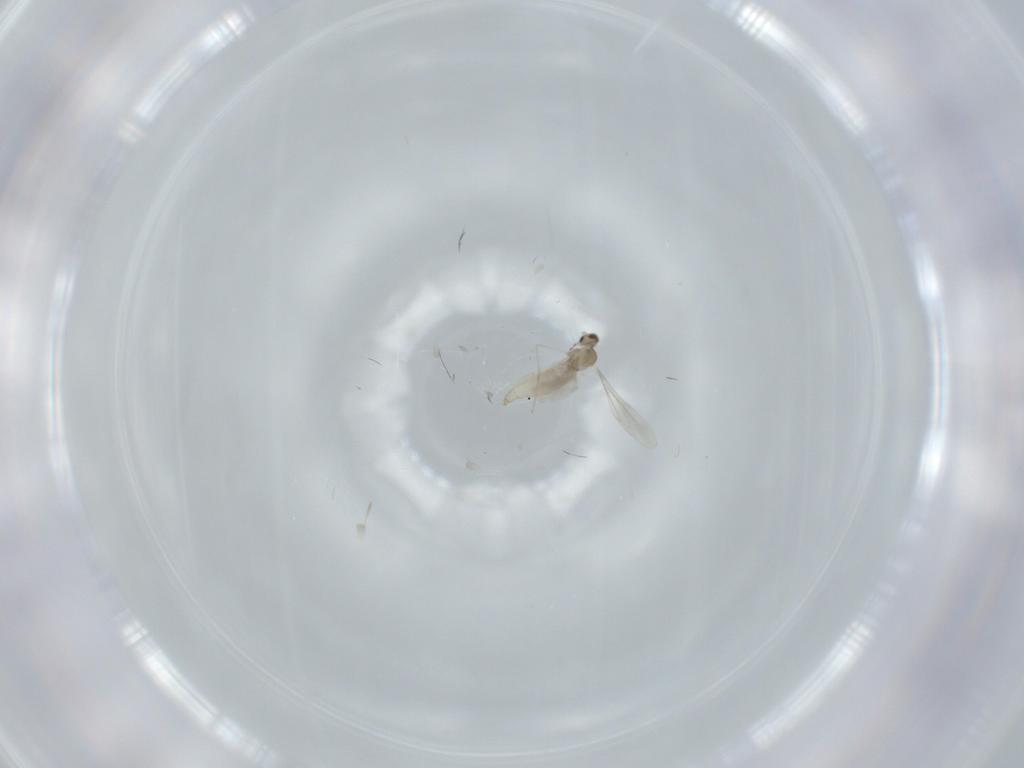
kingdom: Animalia
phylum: Arthropoda
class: Insecta
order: Diptera
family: Cecidomyiidae
